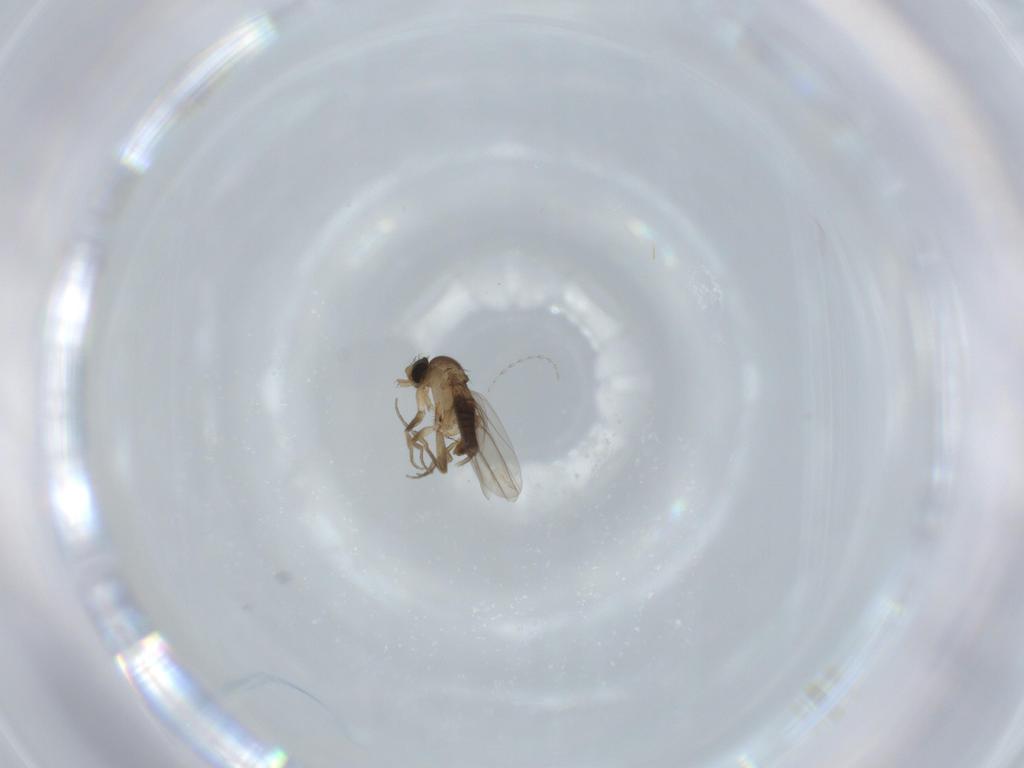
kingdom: Animalia
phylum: Arthropoda
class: Insecta
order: Diptera
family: Phoridae
